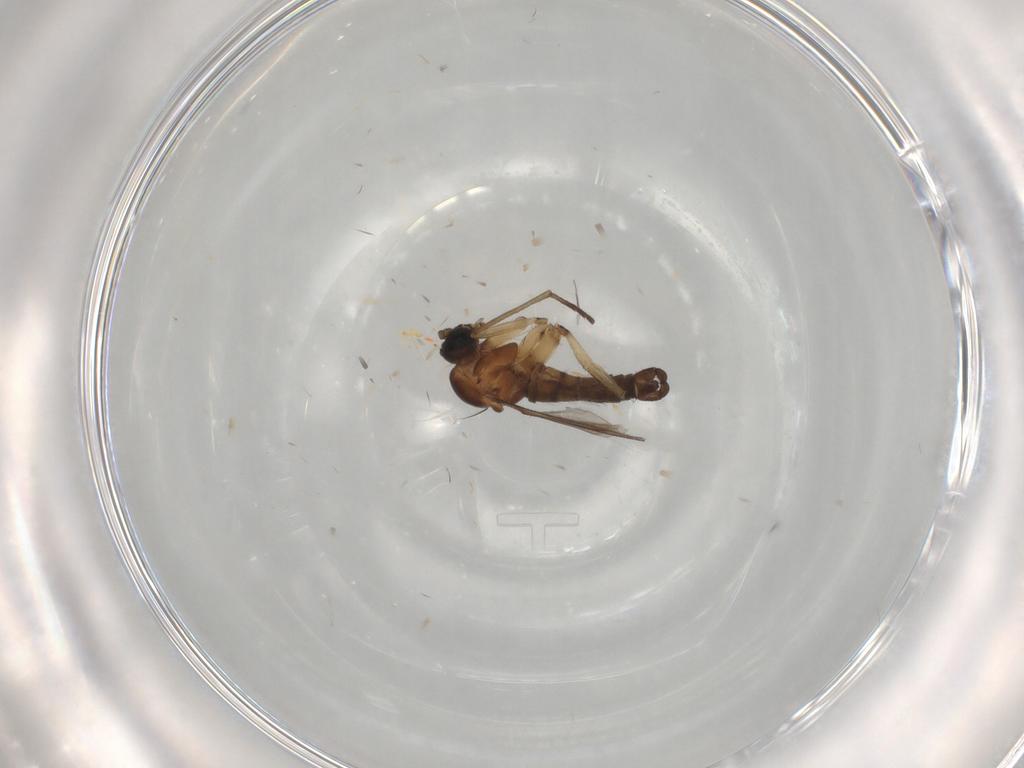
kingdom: Animalia
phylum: Arthropoda
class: Insecta
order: Diptera
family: Sciaridae
